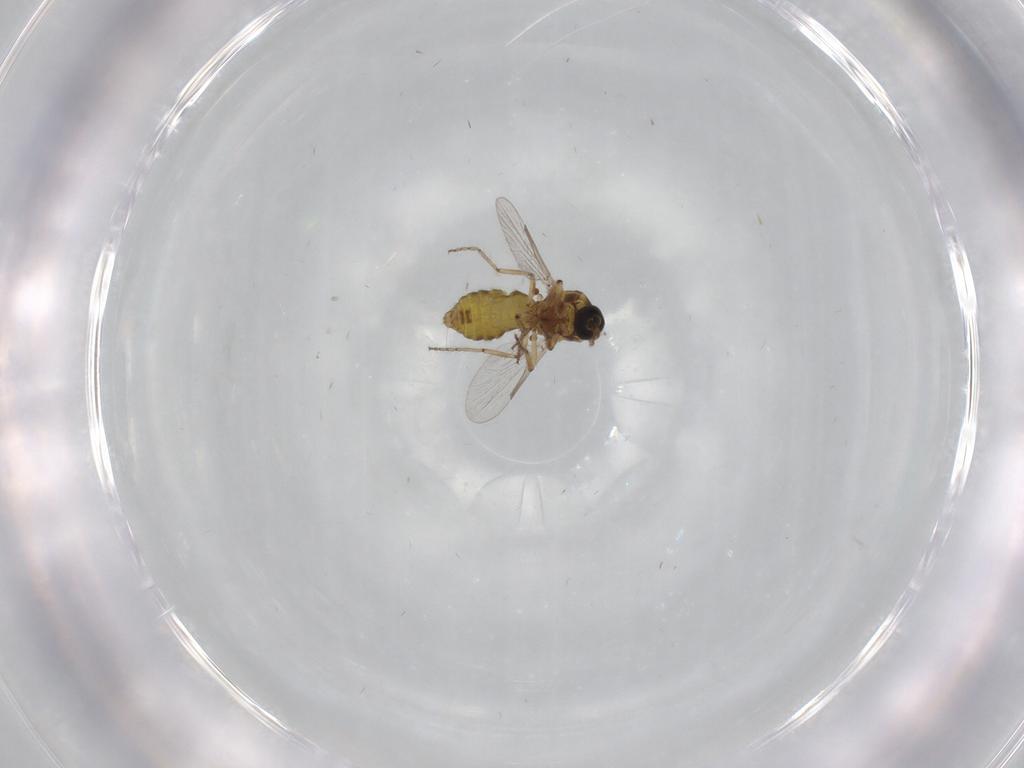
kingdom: Animalia
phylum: Arthropoda
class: Insecta
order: Diptera
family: Ceratopogonidae
